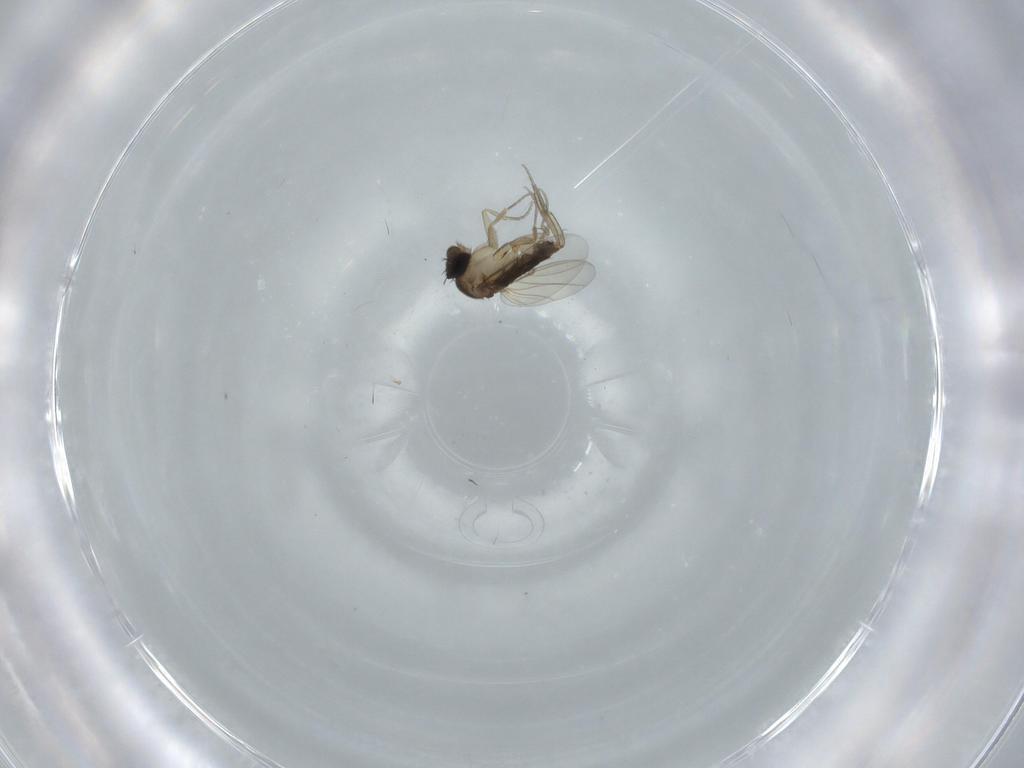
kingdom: Animalia
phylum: Arthropoda
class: Insecta
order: Diptera
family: Phoridae
